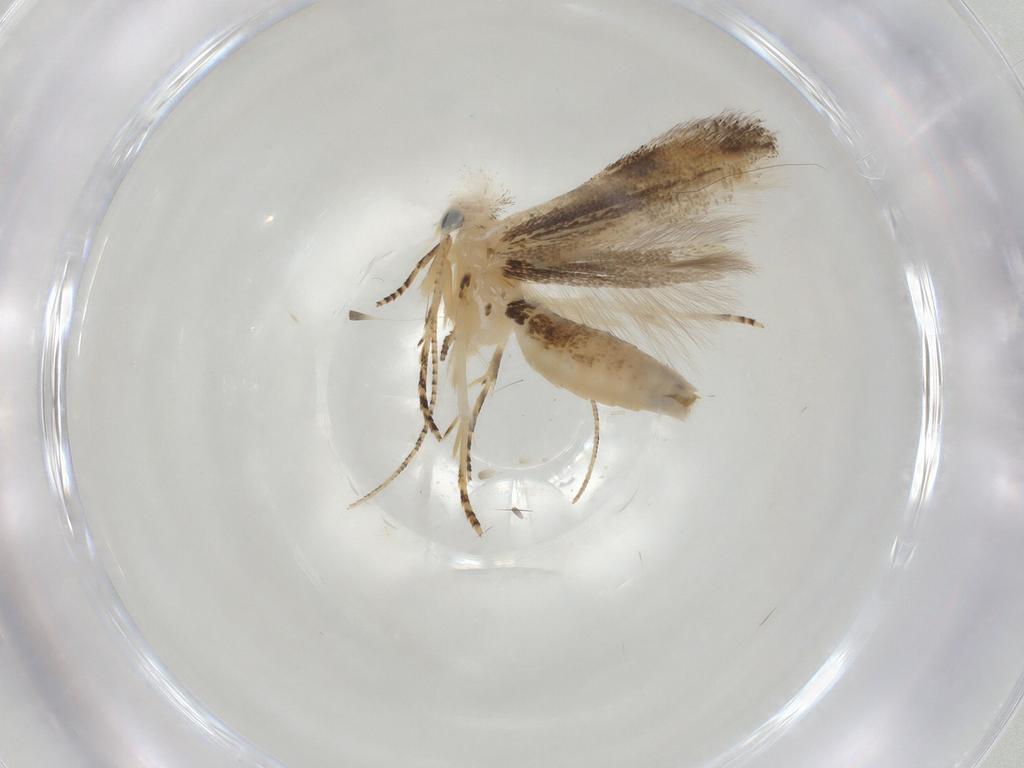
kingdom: Animalia
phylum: Arthropoda
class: Insecta
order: Lepidoptera
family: Bucculatricidae
